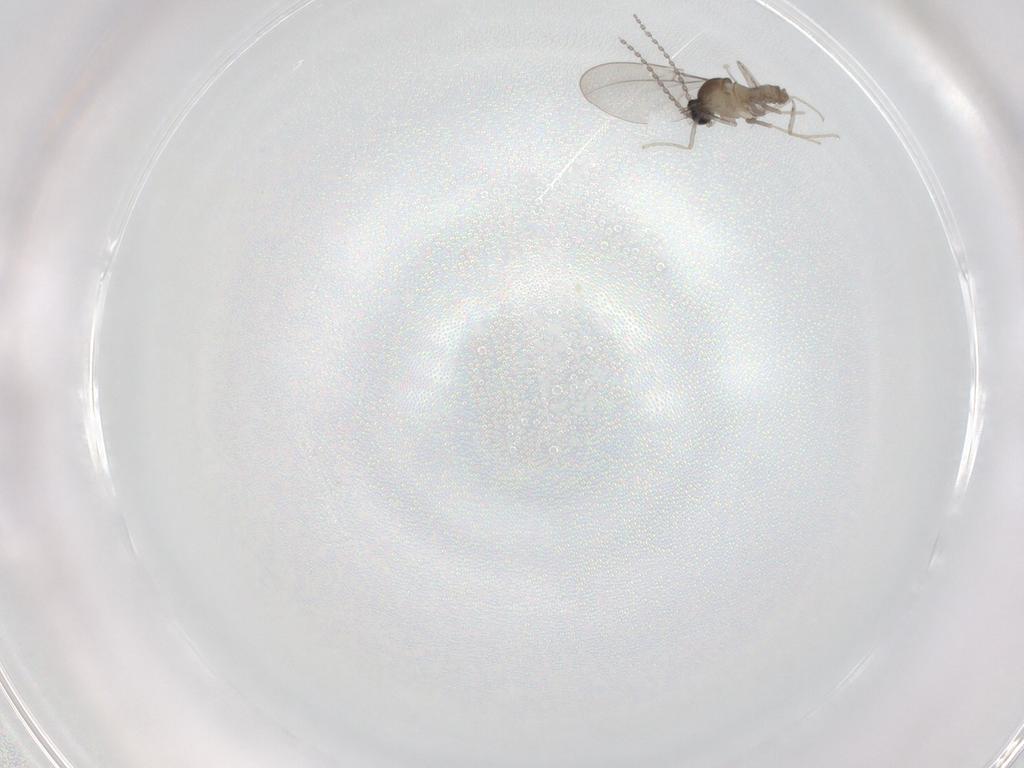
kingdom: Animalia
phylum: Arthropoda
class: Insecta
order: Diptera
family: Cecidomyiidae
